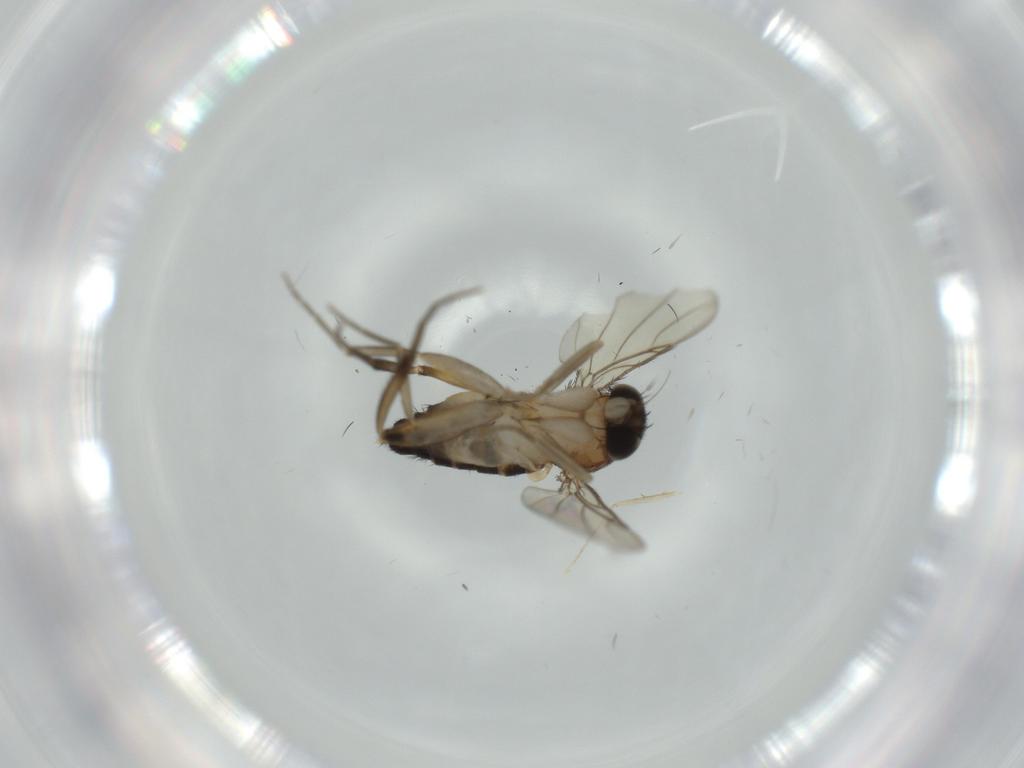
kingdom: Animalia
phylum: Arthropoda
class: Insecta
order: Diptera
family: Psychodidae
